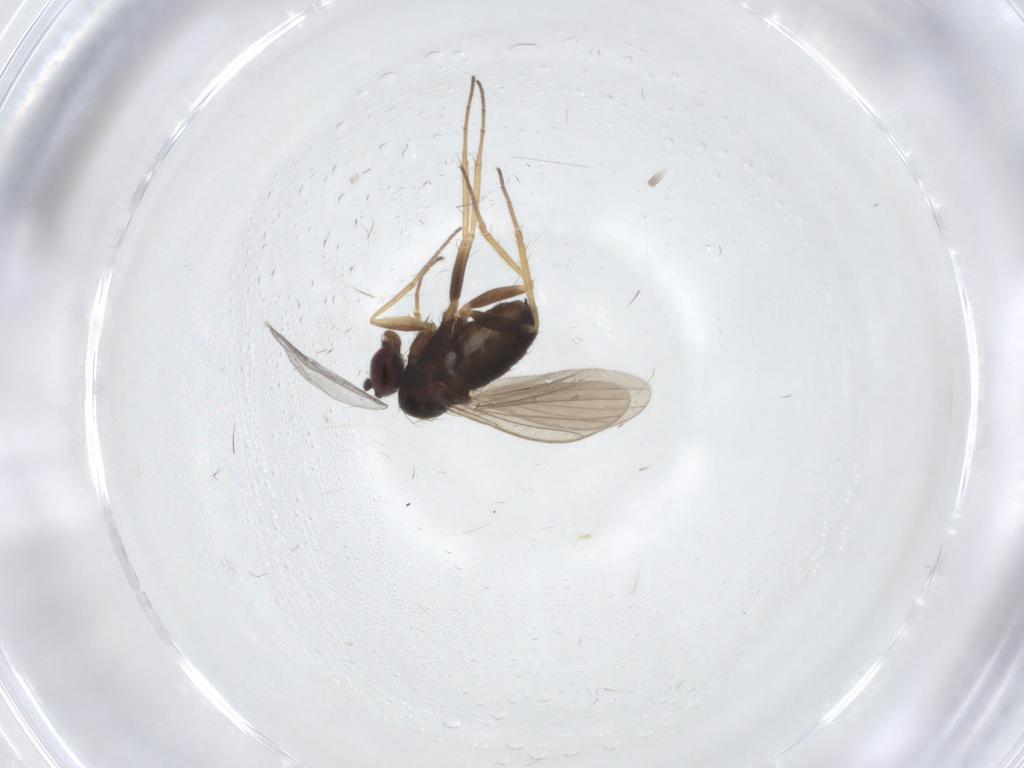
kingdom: Animalia
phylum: Arthropoda
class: Insecta
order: Diptera
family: Dolichopodidae
